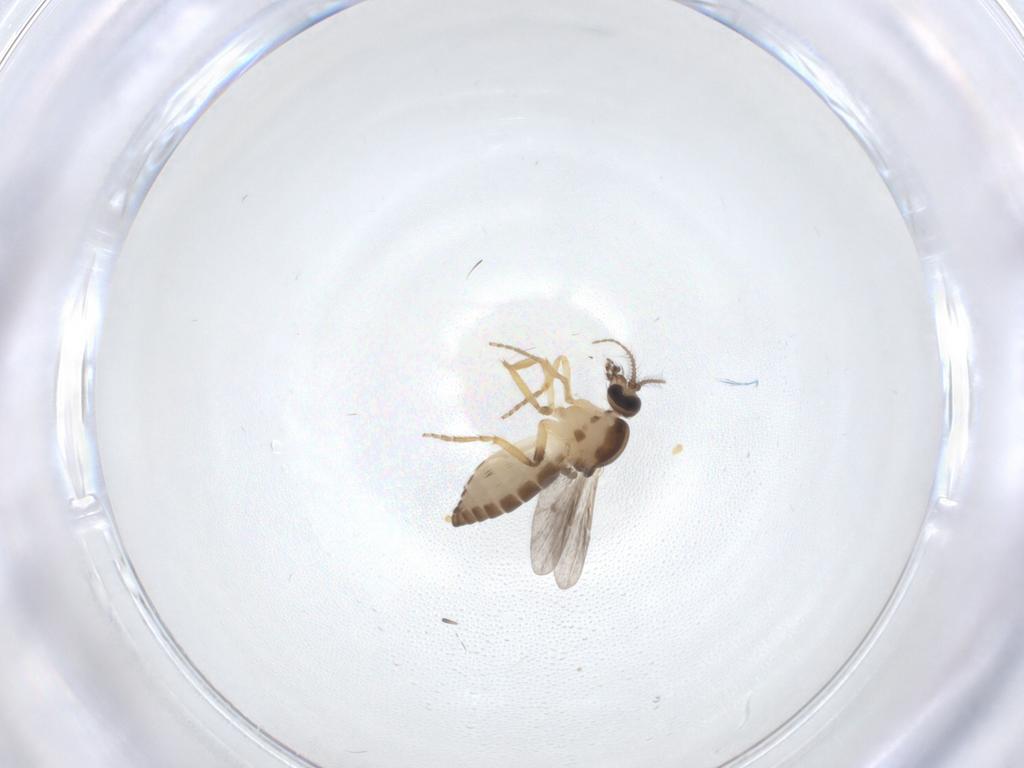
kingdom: Animalia
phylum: Arthropoda
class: Insecta
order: Diptera
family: Ceratopogonidae
